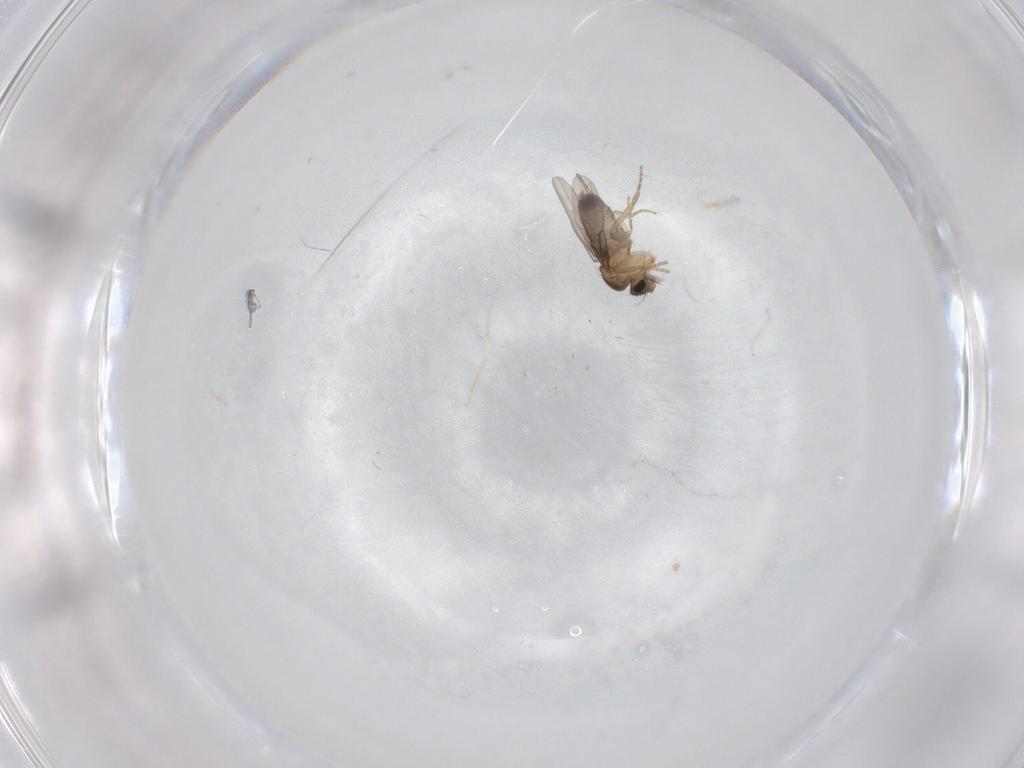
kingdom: Animalia
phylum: Arthropoda
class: Insecta
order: Diptera
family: Phoridae
